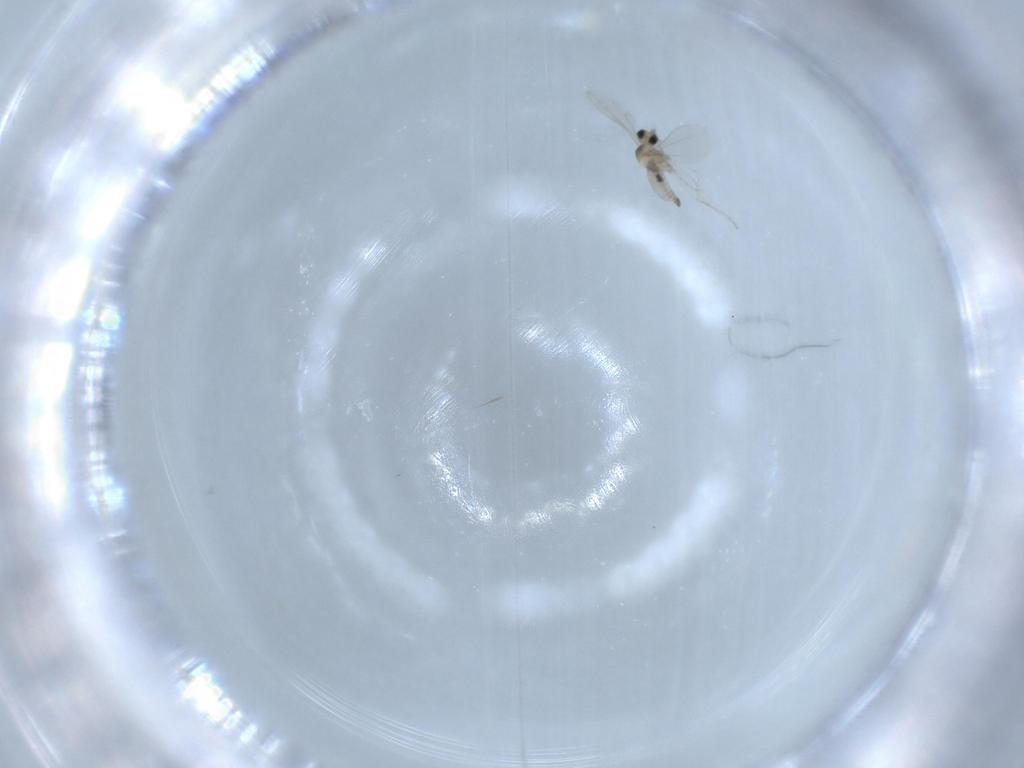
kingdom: Animalia
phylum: Arthropoda
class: Insecta
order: Diptera
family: Cecidomyiidae
